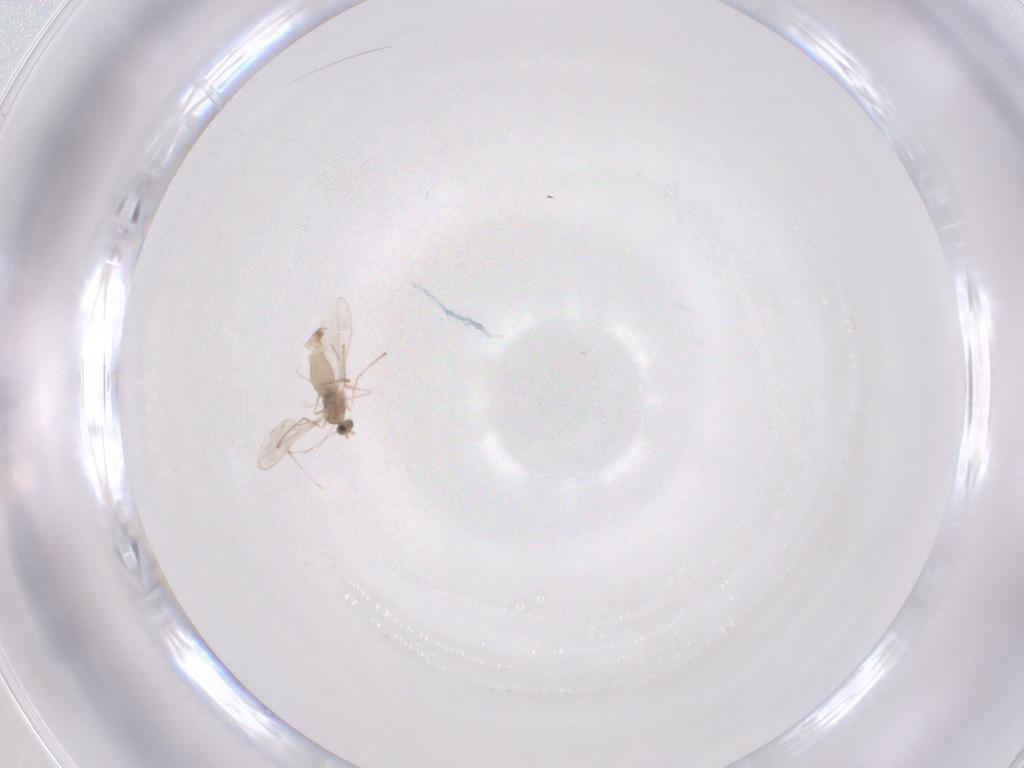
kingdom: Animalia
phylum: Arthropoda
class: Insecta
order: Diptera
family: Cecidomyiidae
